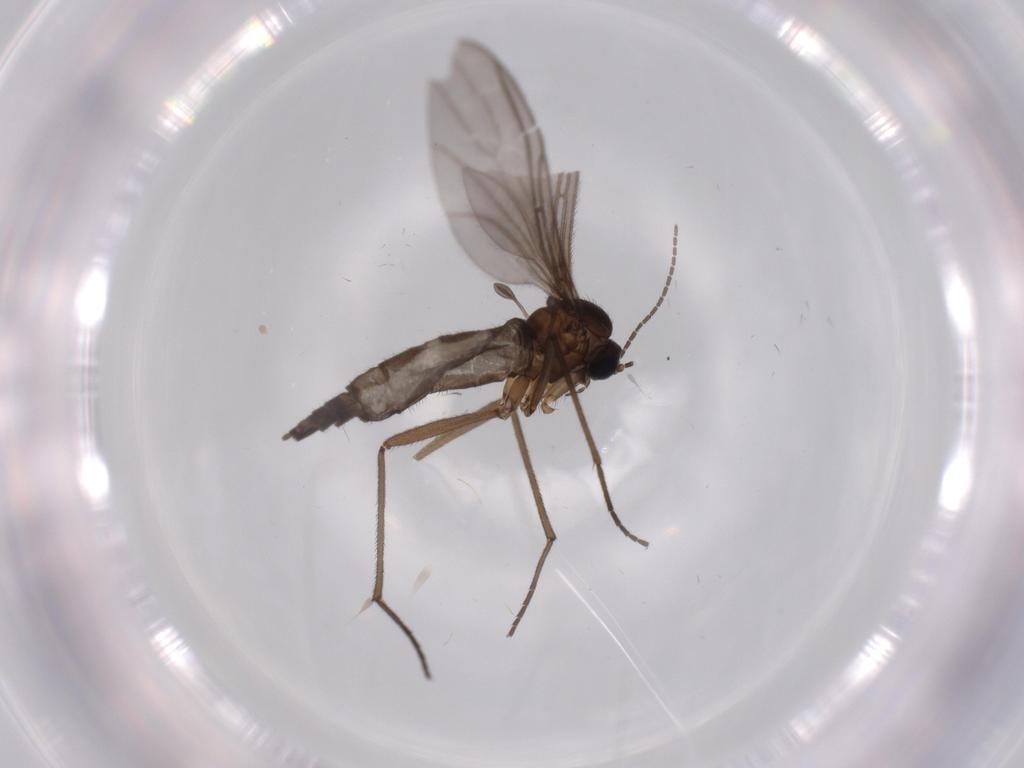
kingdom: Animalia
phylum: Arthropoda
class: Insecta
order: Diptera
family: Sciaridae
